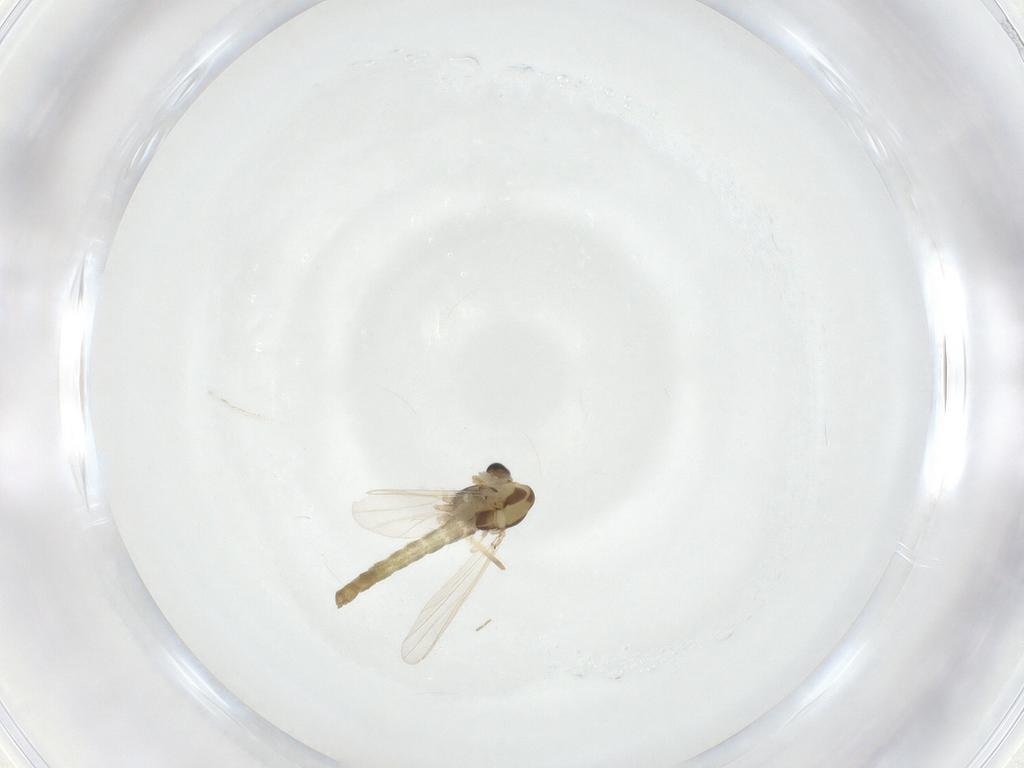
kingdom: Animalia
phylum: Arthropoda
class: Insecta
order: Diptera
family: Chironomidae
